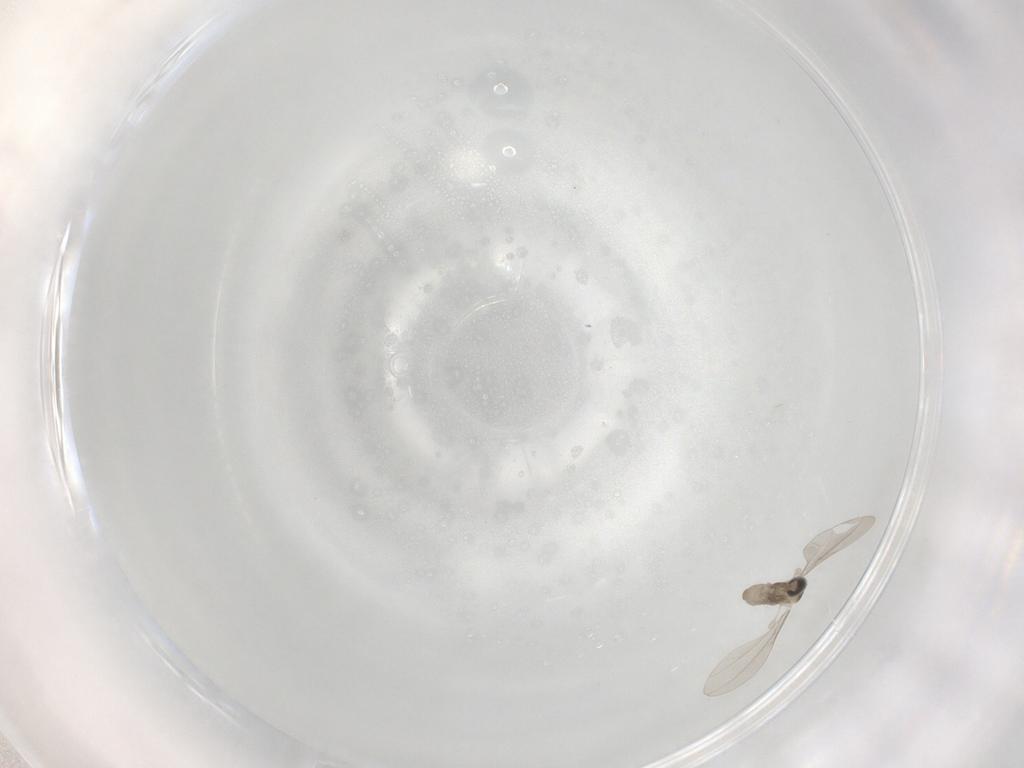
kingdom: Animalia
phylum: Arthropoda
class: Insecta
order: Diptera
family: Cecidomyiidae
